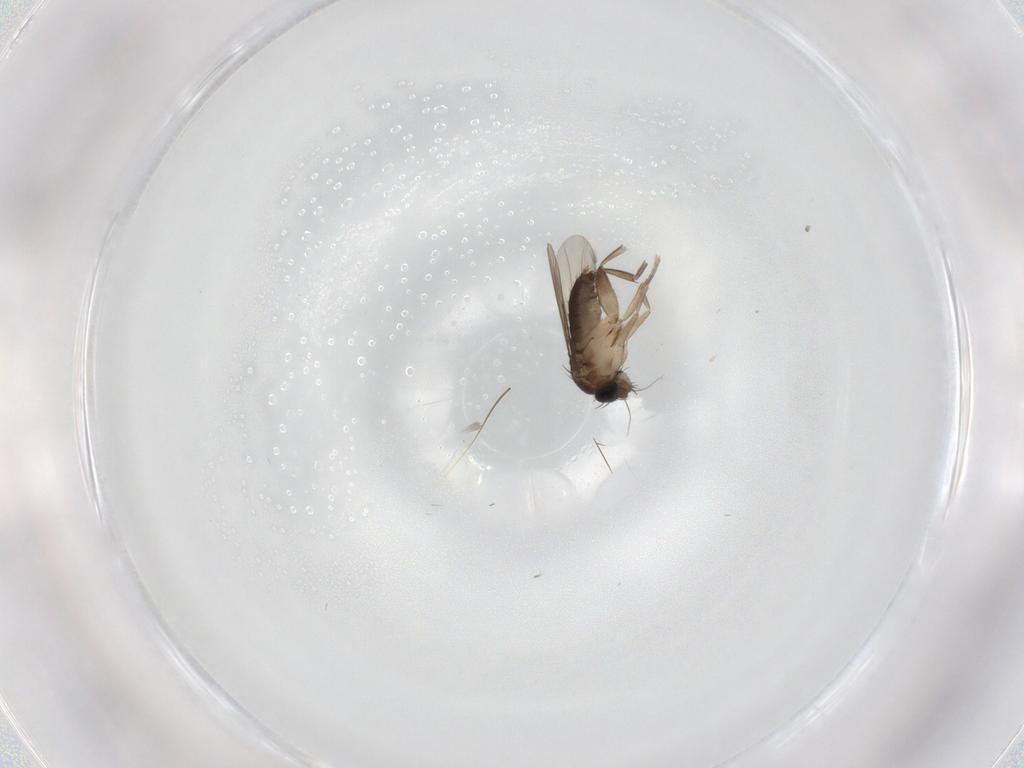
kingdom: Animalia
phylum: Arthropoda
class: Insecta
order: Diptera
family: Phoridae
